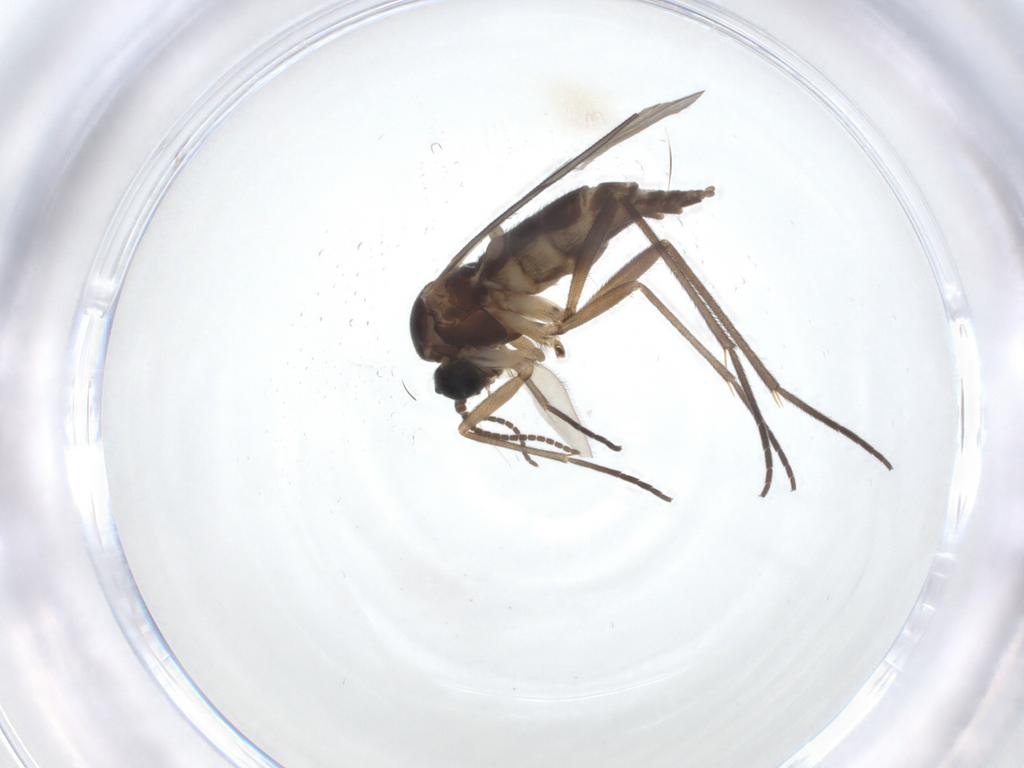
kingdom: Animalia
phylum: Arthropoda
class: Insecta
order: Diptera
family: Sciaridae
